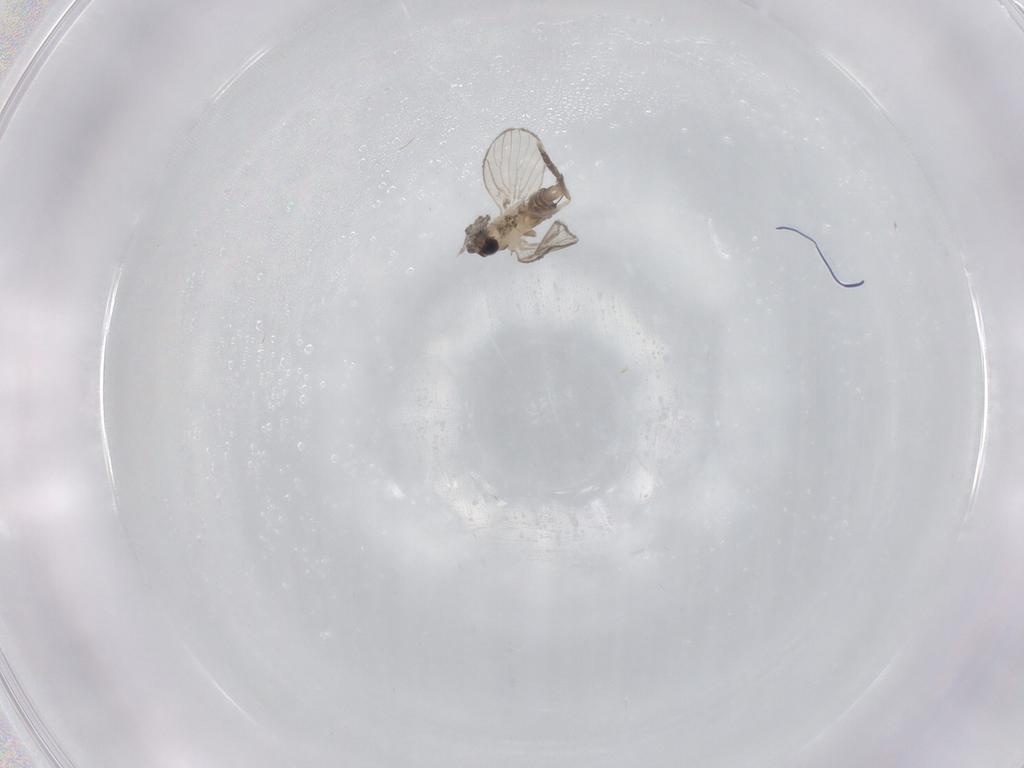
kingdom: Animalia
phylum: Arthropoda
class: Insecta
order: Diptera
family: Psychodidae
